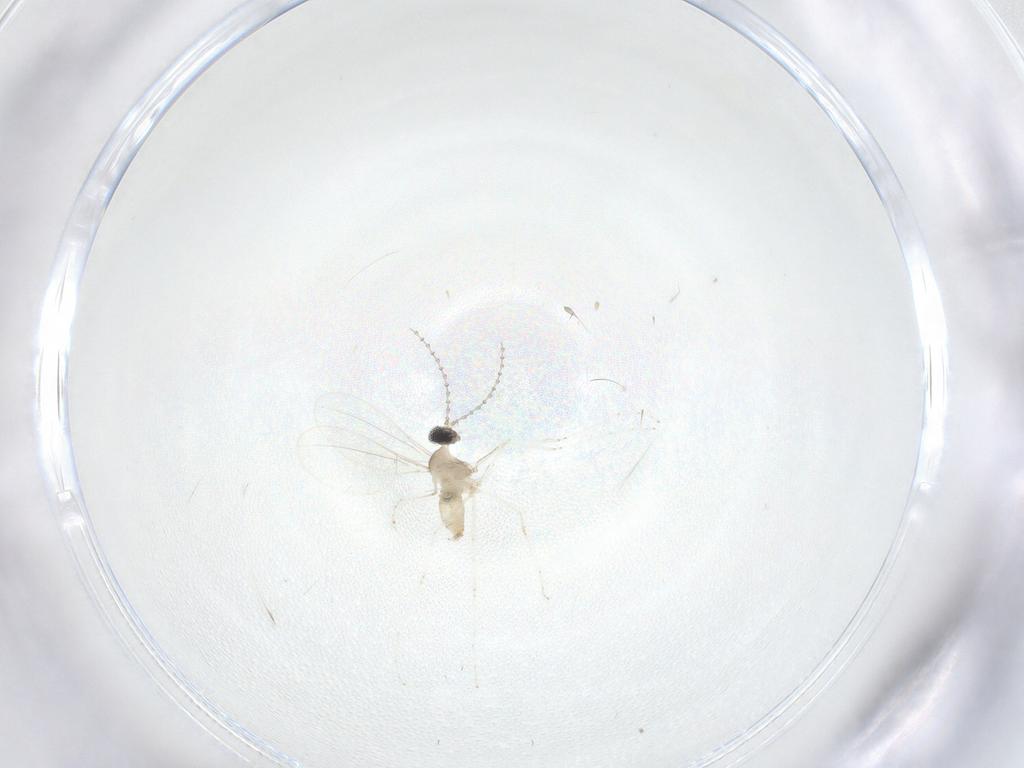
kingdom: Animalia
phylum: Arthropoda
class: Insecta
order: Diptera
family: Cecidomyiidae
